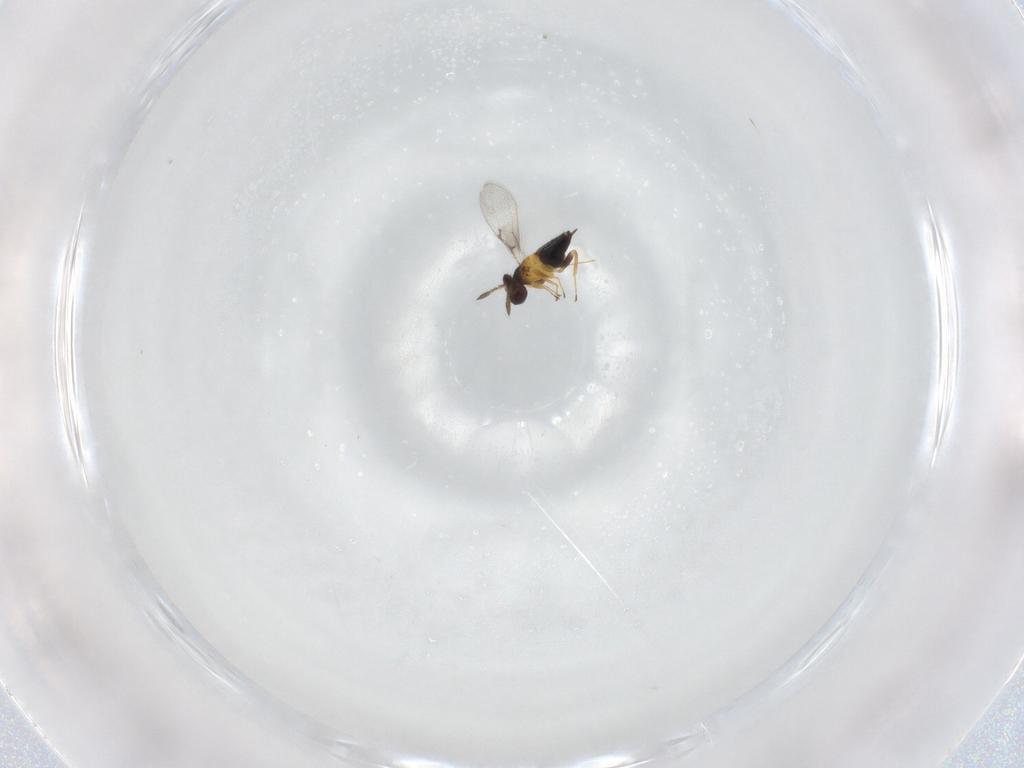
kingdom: Animalia
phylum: Arthropoda
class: Insecta
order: Hymenoptera
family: Trichogrammatidae
